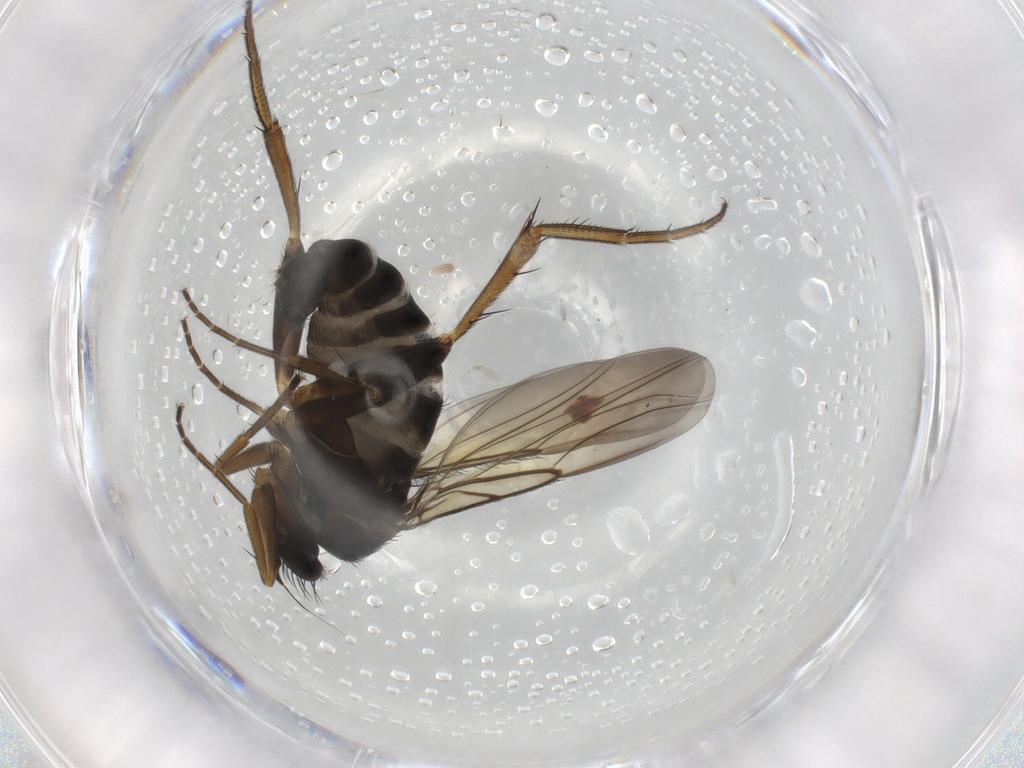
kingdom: Animalia
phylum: Arthropoda
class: Insecta
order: Diptera
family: Phoridae
